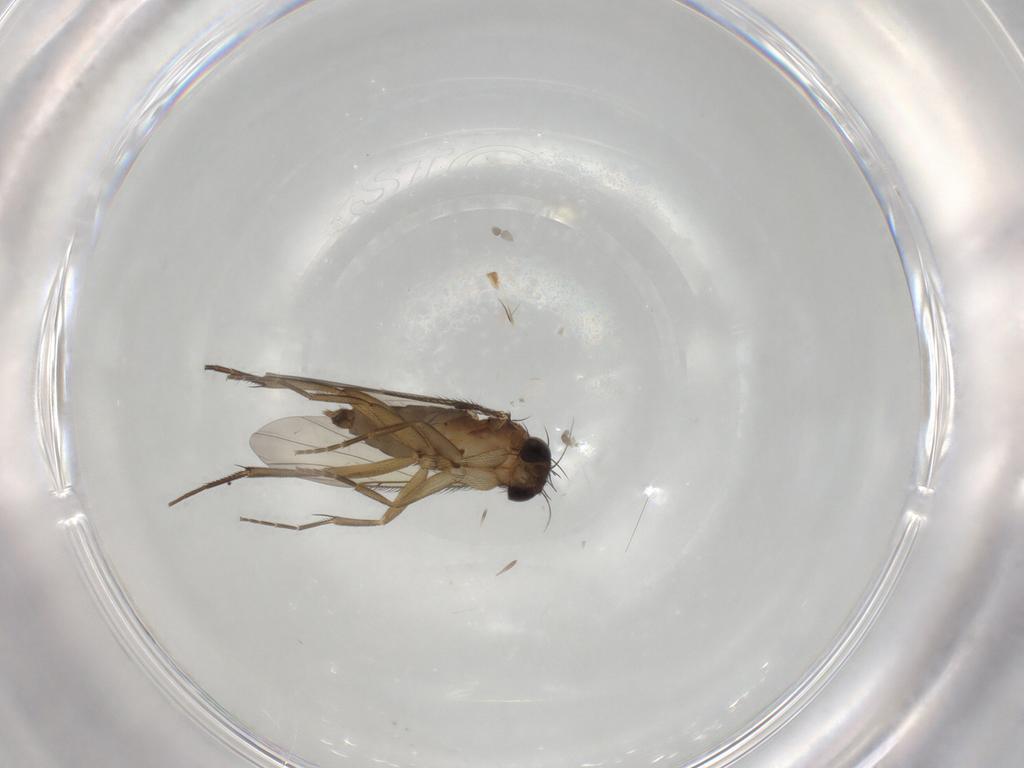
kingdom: Animalia
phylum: Arthropoda
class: Insecta
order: Diptera
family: Phoridae
